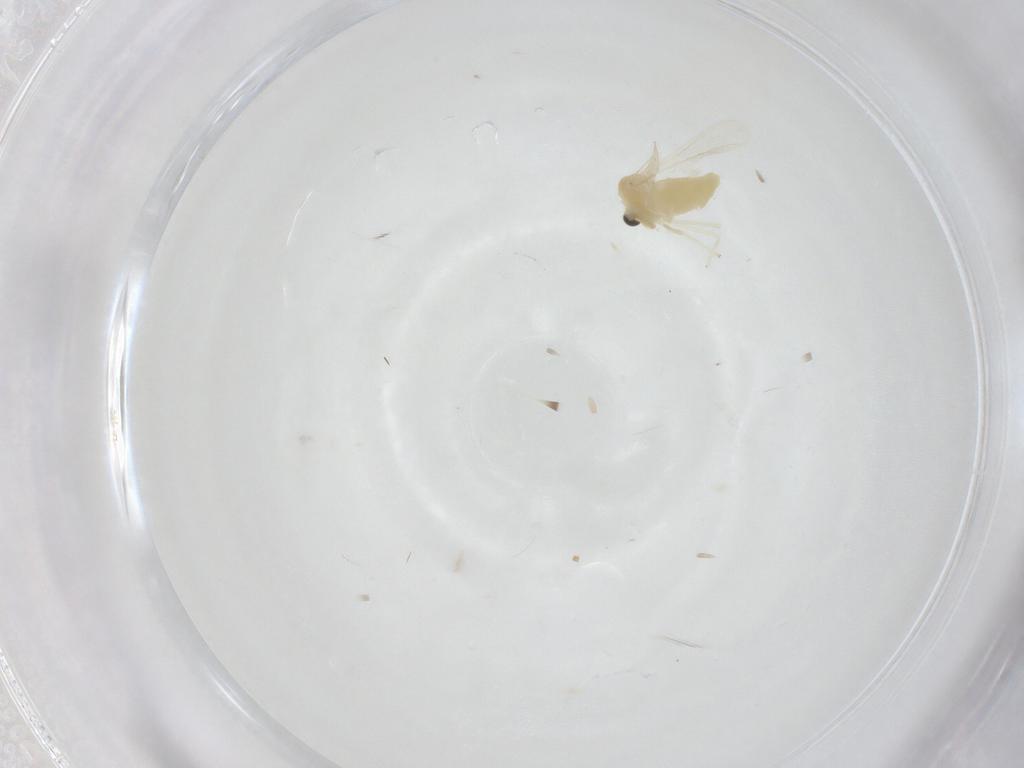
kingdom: Animalia
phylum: Arthropoda
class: Insecta
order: Diptera
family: Chironomidae
